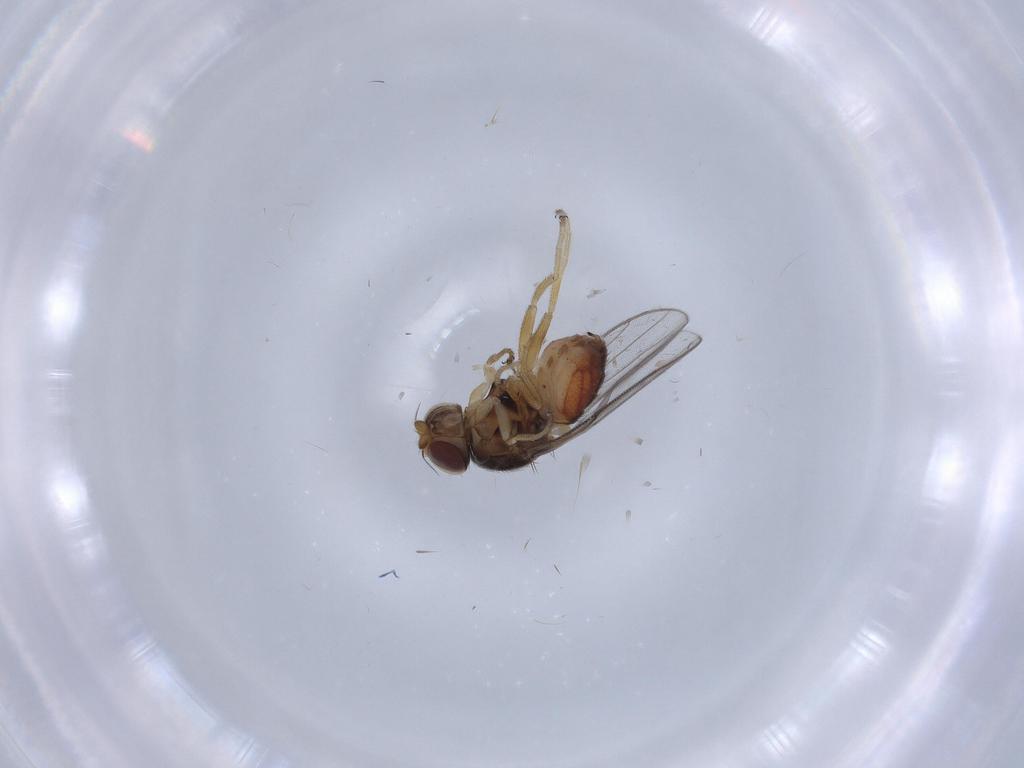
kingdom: Animalia
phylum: Arthropoda
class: Insecta
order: Diptera
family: Chloropidae
